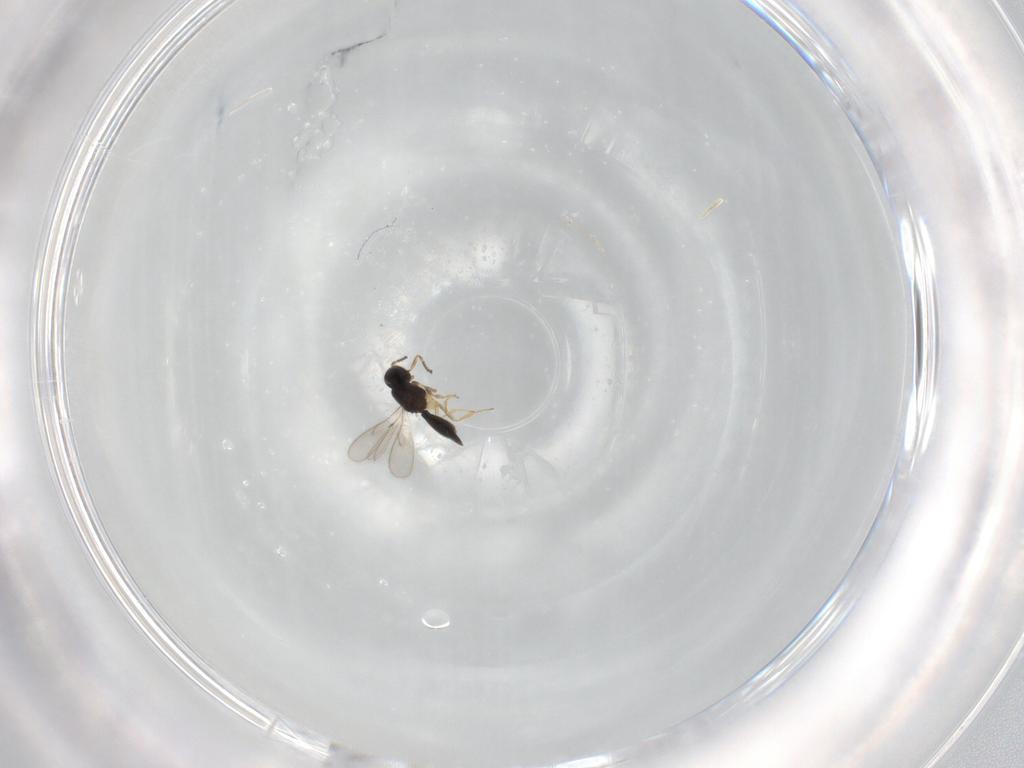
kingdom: Animalia
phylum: Arthropoda
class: Insecta
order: Hymenoptera
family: Scelionidae
